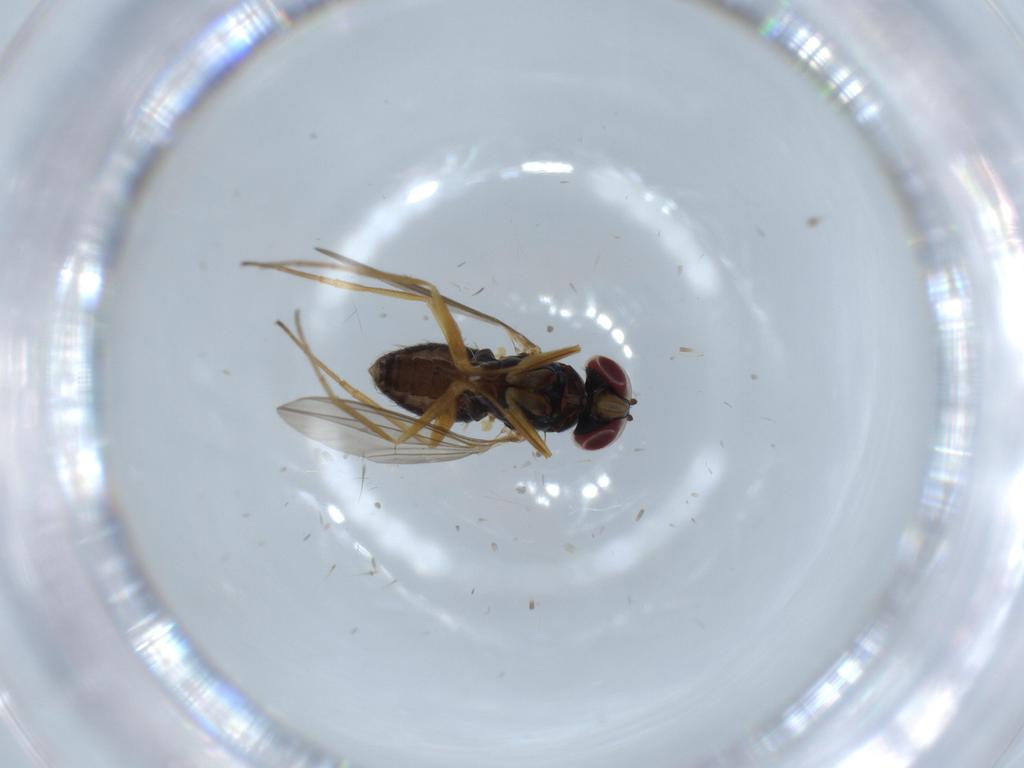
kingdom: Animalia
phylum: Arthropoda
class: Insecta
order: Diptera
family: Dolichopodidae
